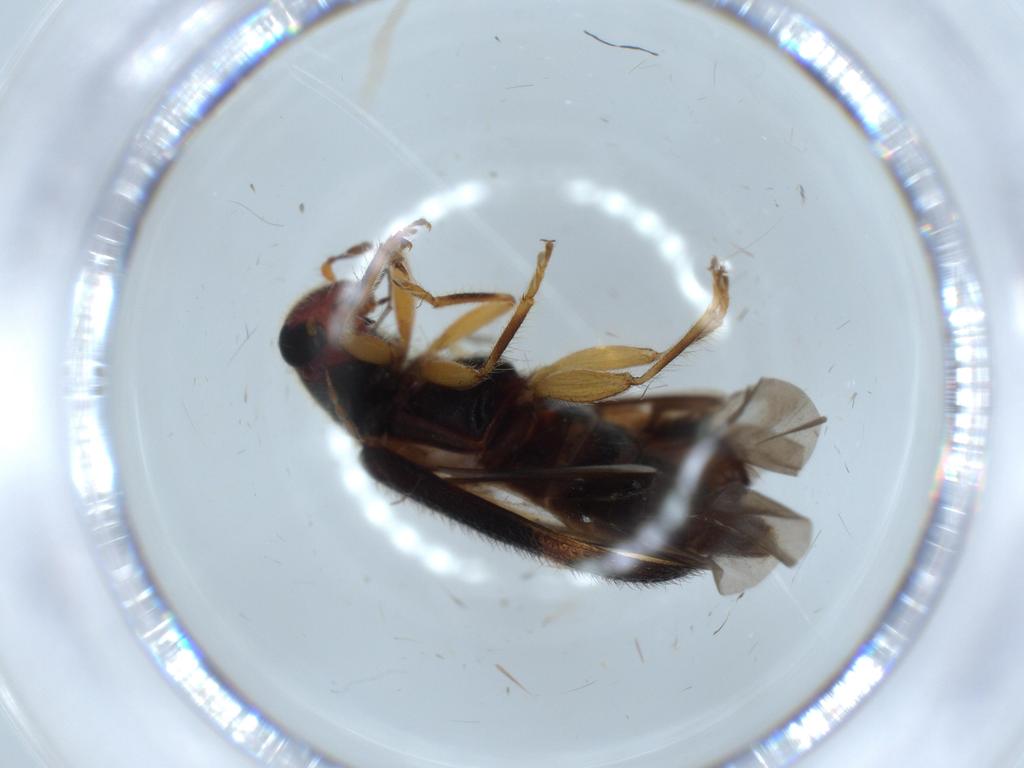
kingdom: Animalia
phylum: Arthropoda
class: Insecta
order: Coleoptera
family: Cleridae
